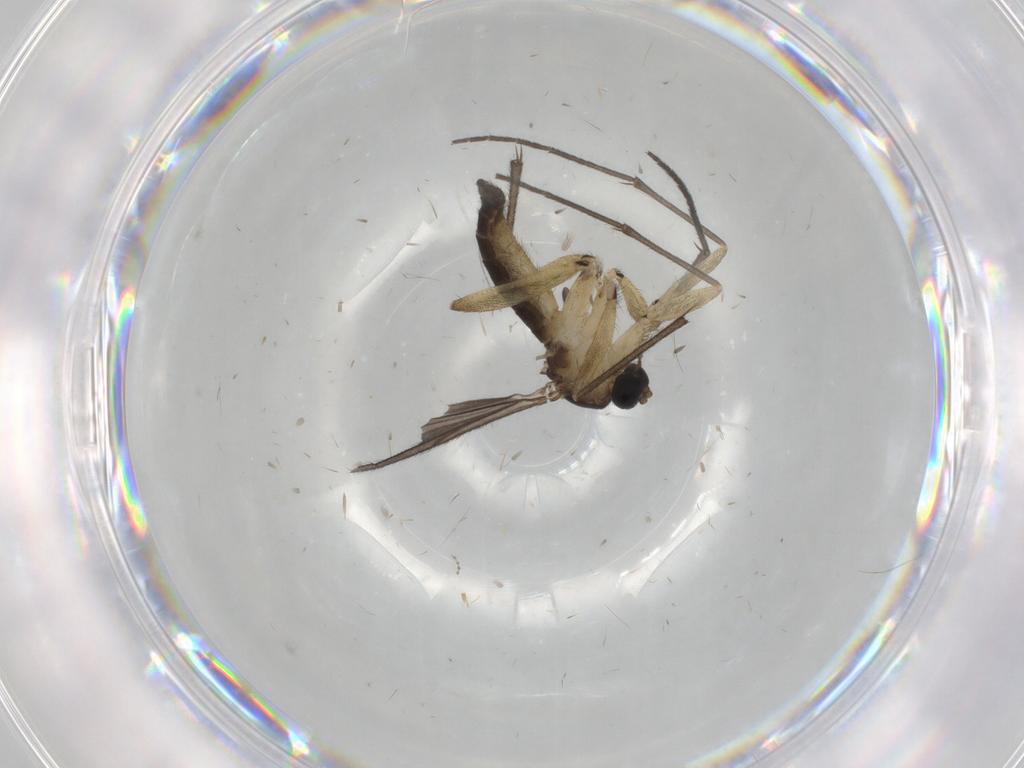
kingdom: Animalia
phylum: Arthropoda
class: Insecta
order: Diptera
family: Sciaridae
